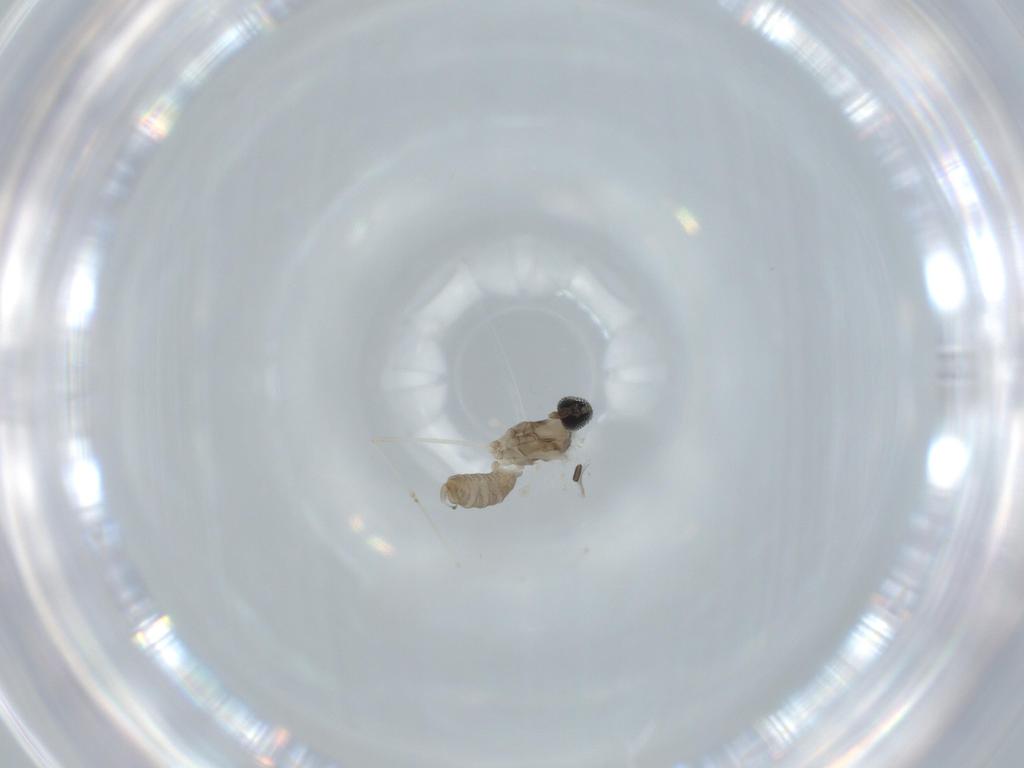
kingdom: Animalia
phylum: Arthropoda
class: Insecta
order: Diptera
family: Cecidomyiidae
